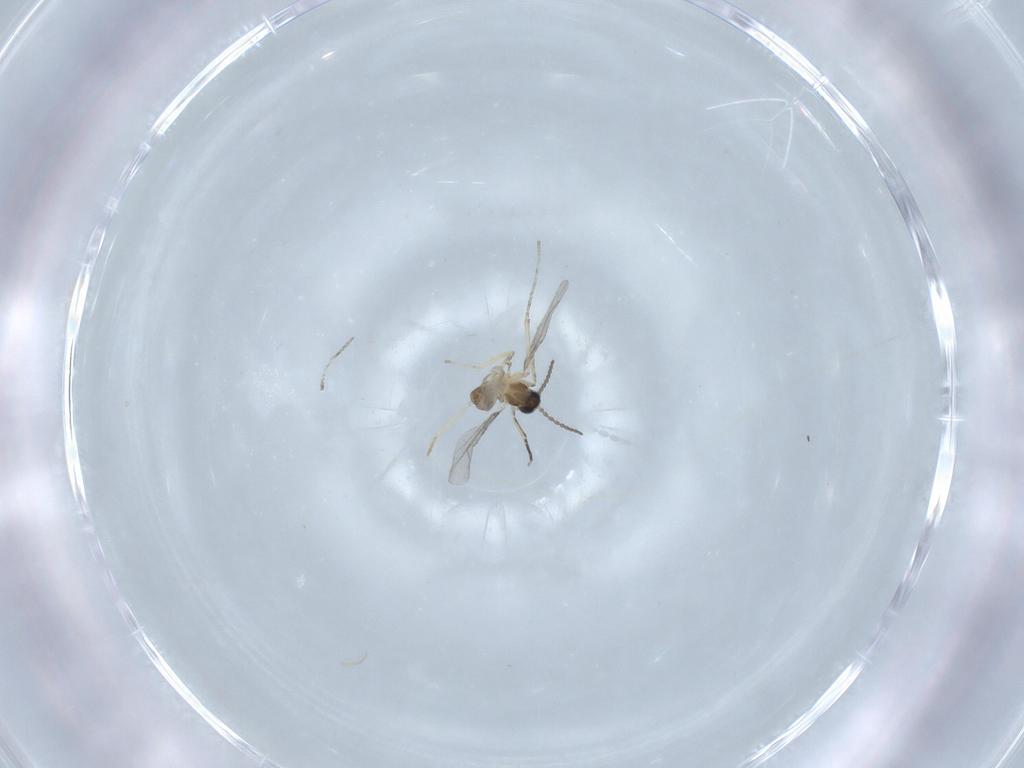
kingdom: Animalia
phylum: Arthropoda
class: Insecta
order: Diptera
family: Cecidomyiidae
